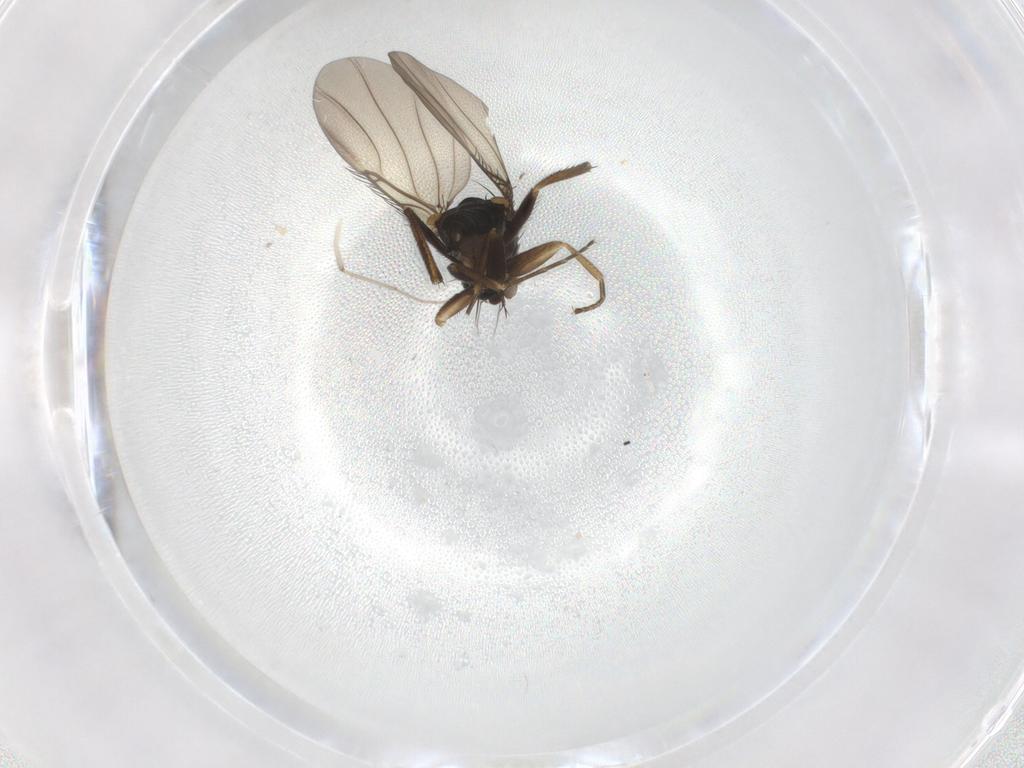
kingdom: Animalia
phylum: Arthropoda
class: Insecta
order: Diptera
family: Phoridae
